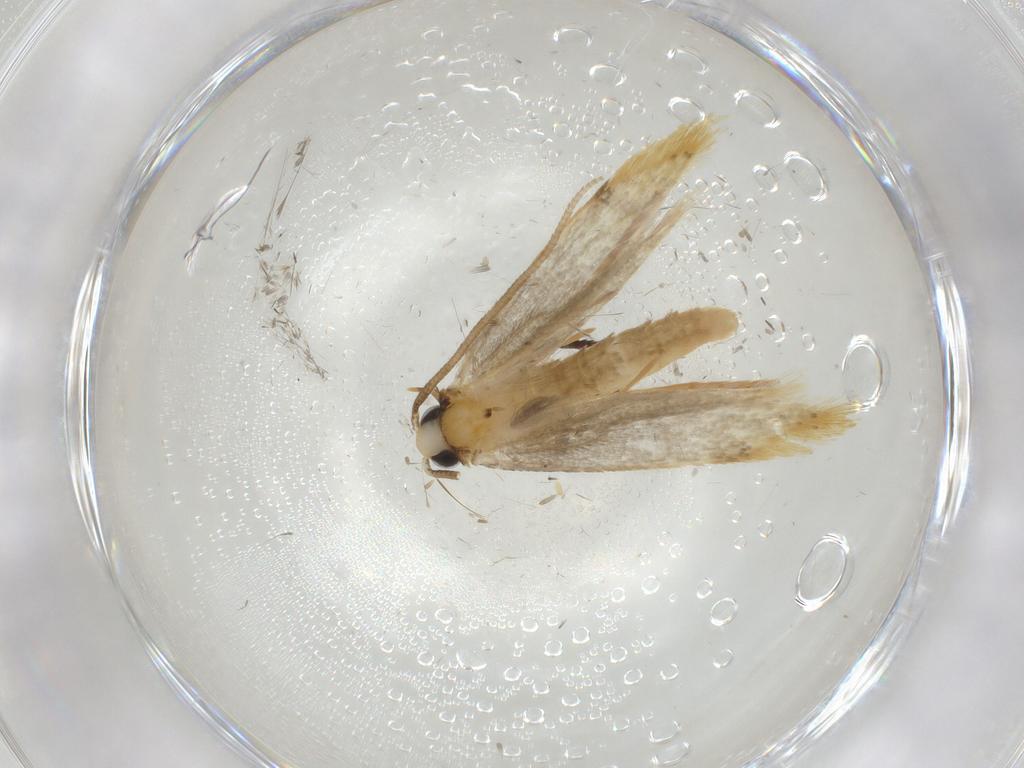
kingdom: Animalia
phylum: Arthropoda
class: Insecta
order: Lepidoptera
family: Tineidae
